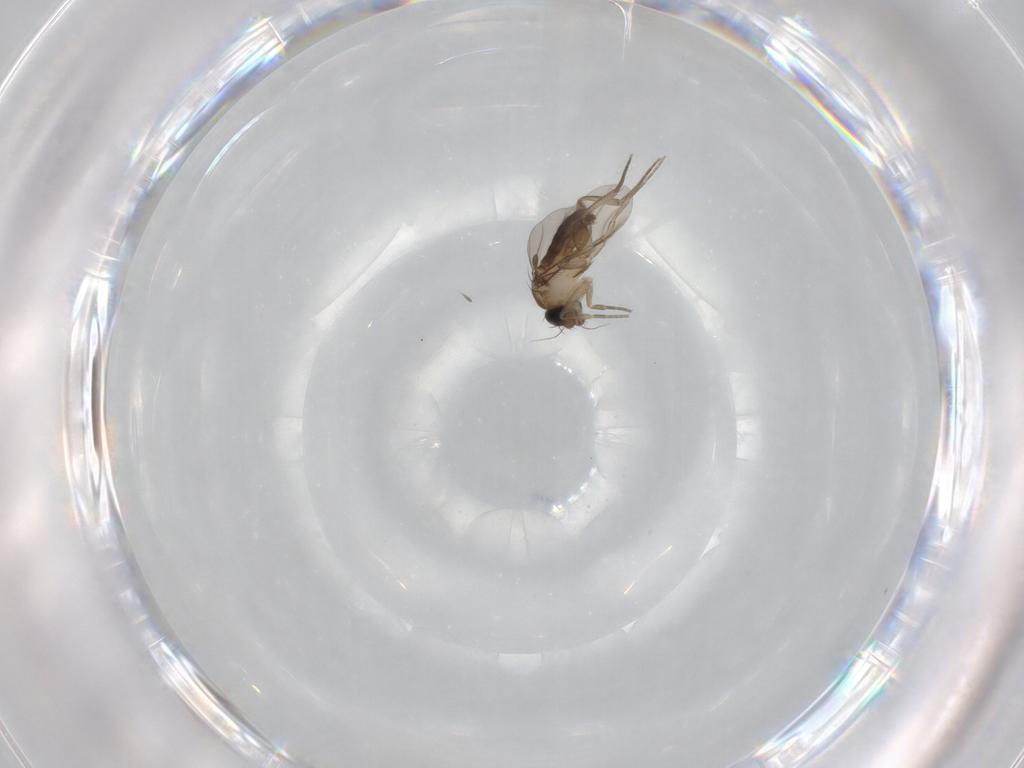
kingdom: Animalia
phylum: Arthropoda
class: Insecta
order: Diptera
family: Phoridae
